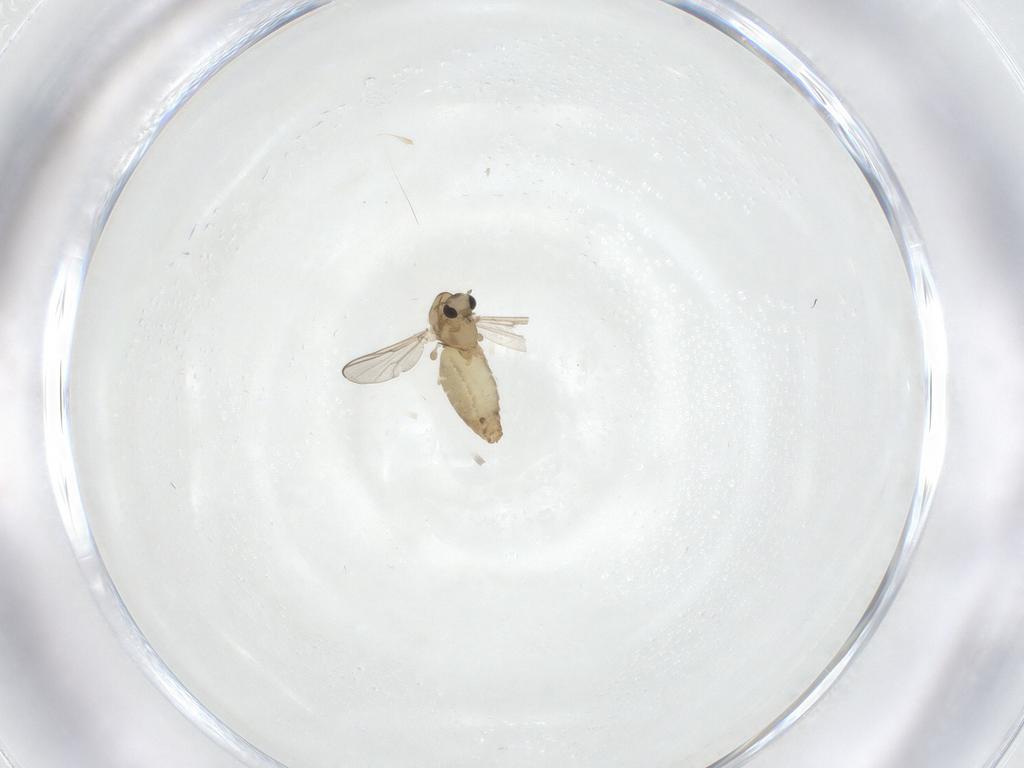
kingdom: Animalia
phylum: Arthropoda
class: Insecta
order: Diptera
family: Chironomidae
